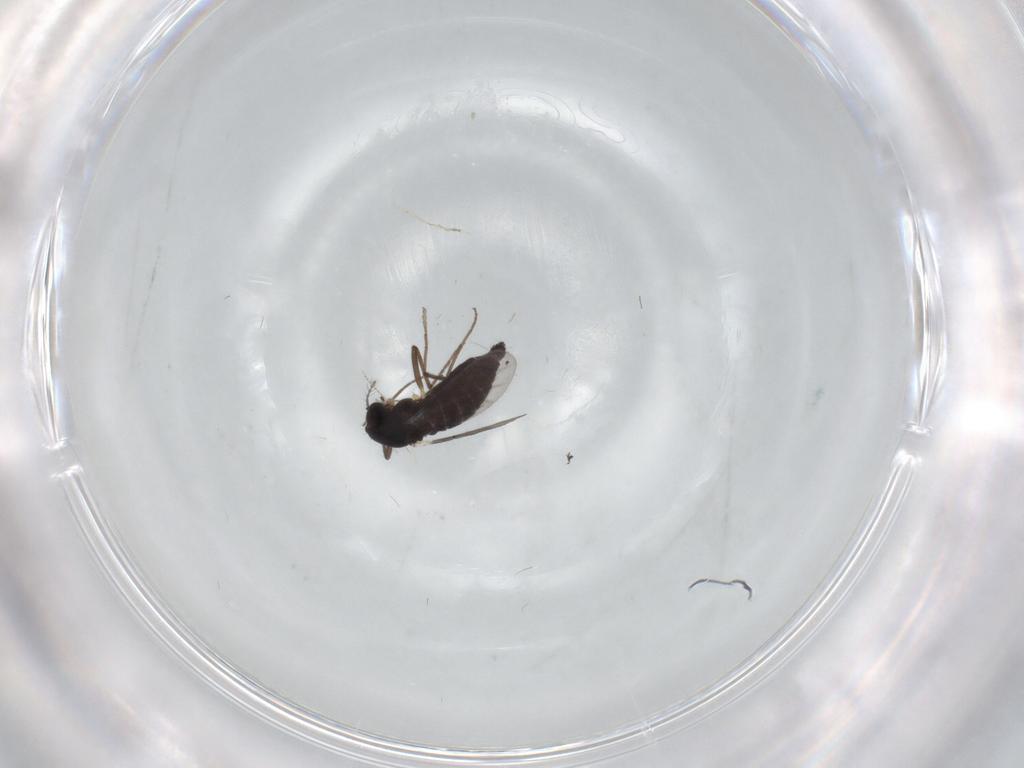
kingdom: Animalia
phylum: Arthropoda
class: Insecta
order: Diptera
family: Chironomidae
